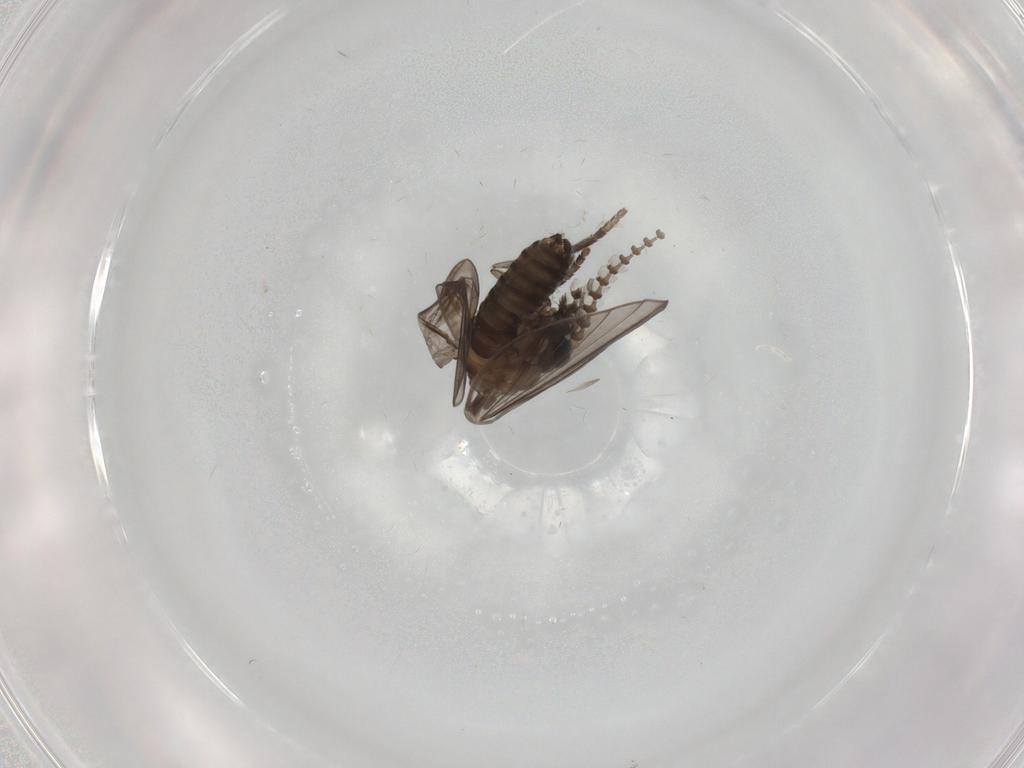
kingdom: Animalia
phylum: Arthropoda
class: Insecta
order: Diptera
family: Psychodidae
